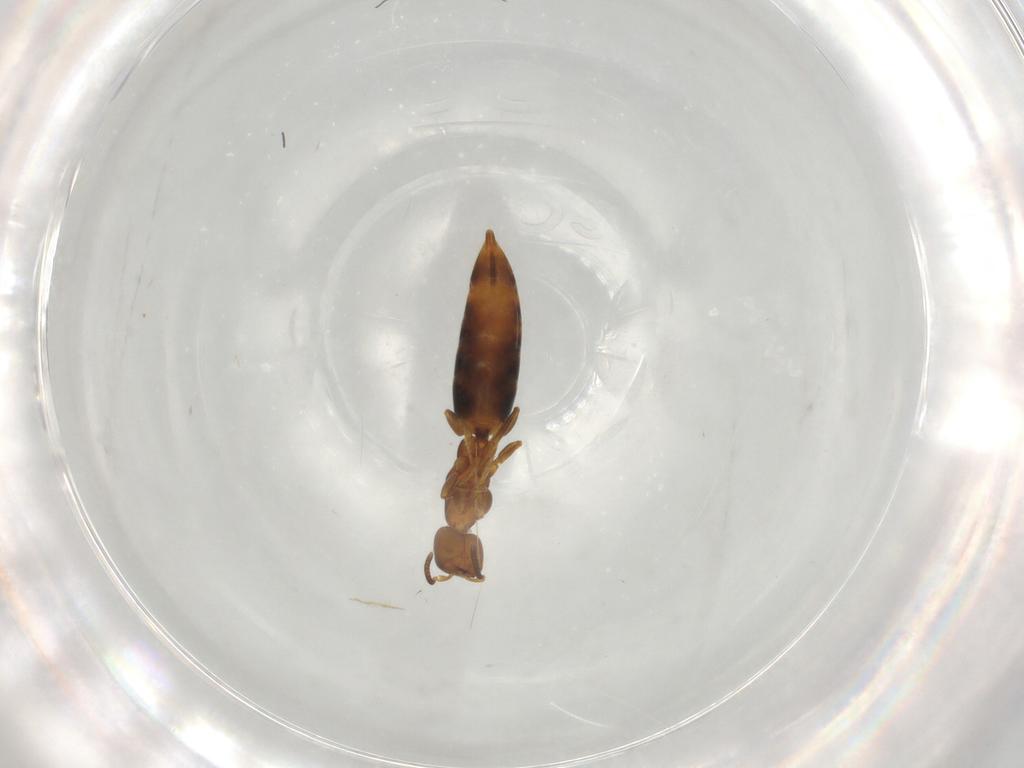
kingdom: Animalia
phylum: Arthropoda
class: Insecta
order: Hymenoptera
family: Bethylidae
